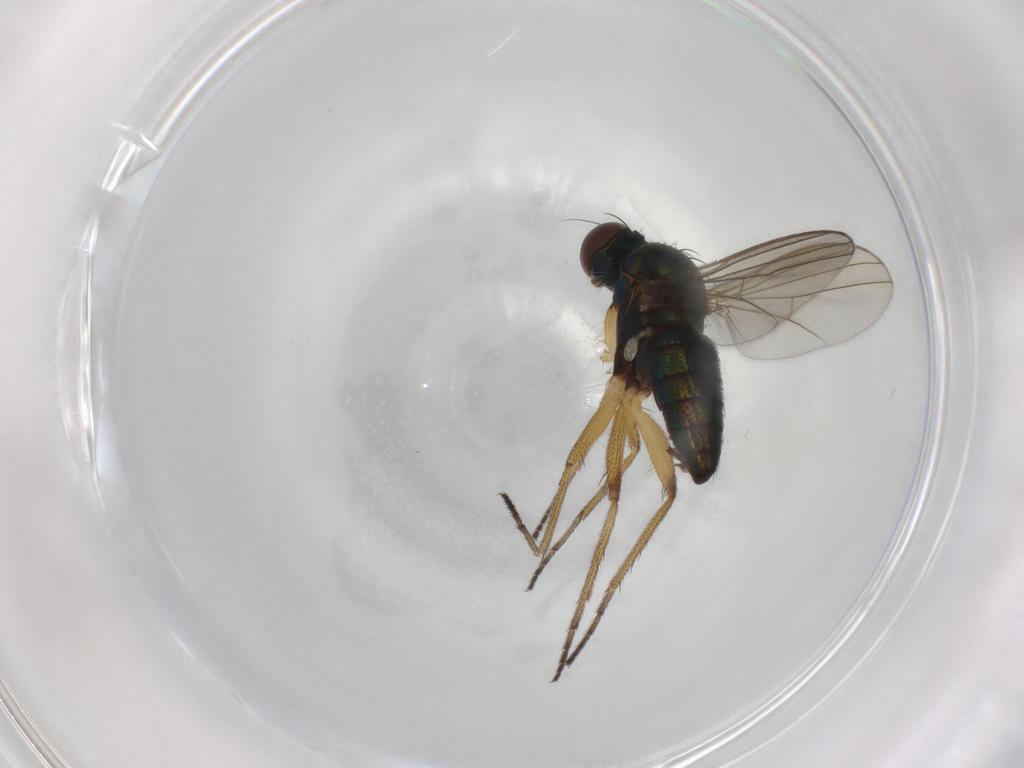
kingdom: Animalia
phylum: Arthropoda
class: Insecta
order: Diptera
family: Dolichopodidae
